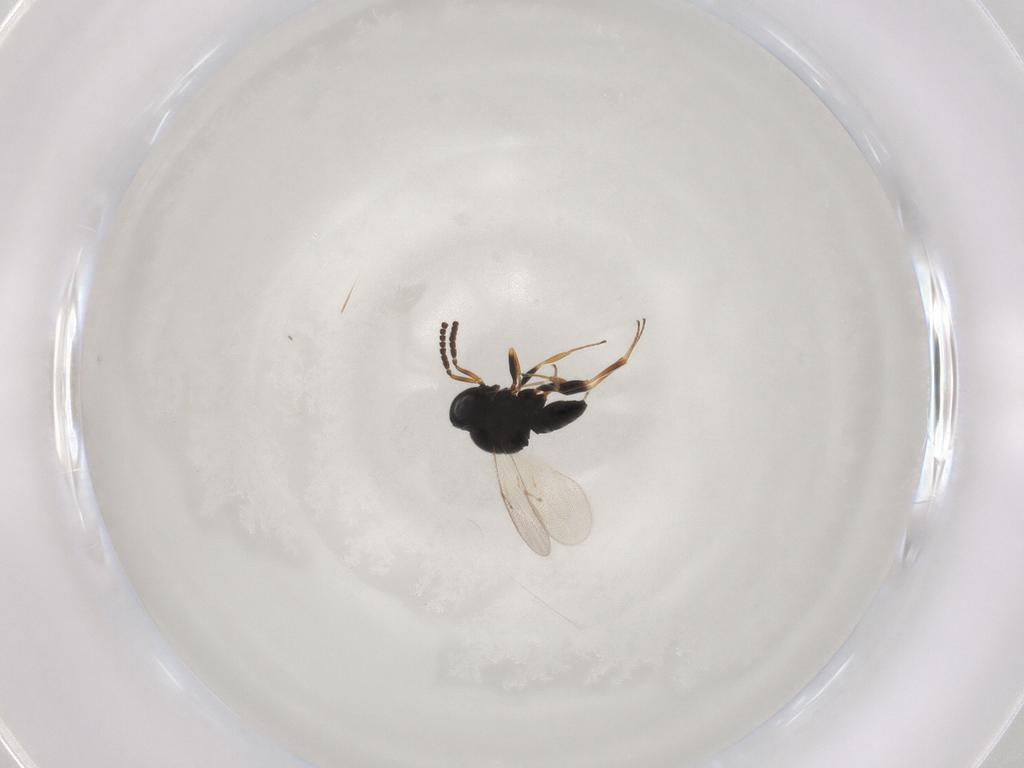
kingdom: Animalia
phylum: Arthropoda
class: Insecta
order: Hymenoptera
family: Scelionidae
